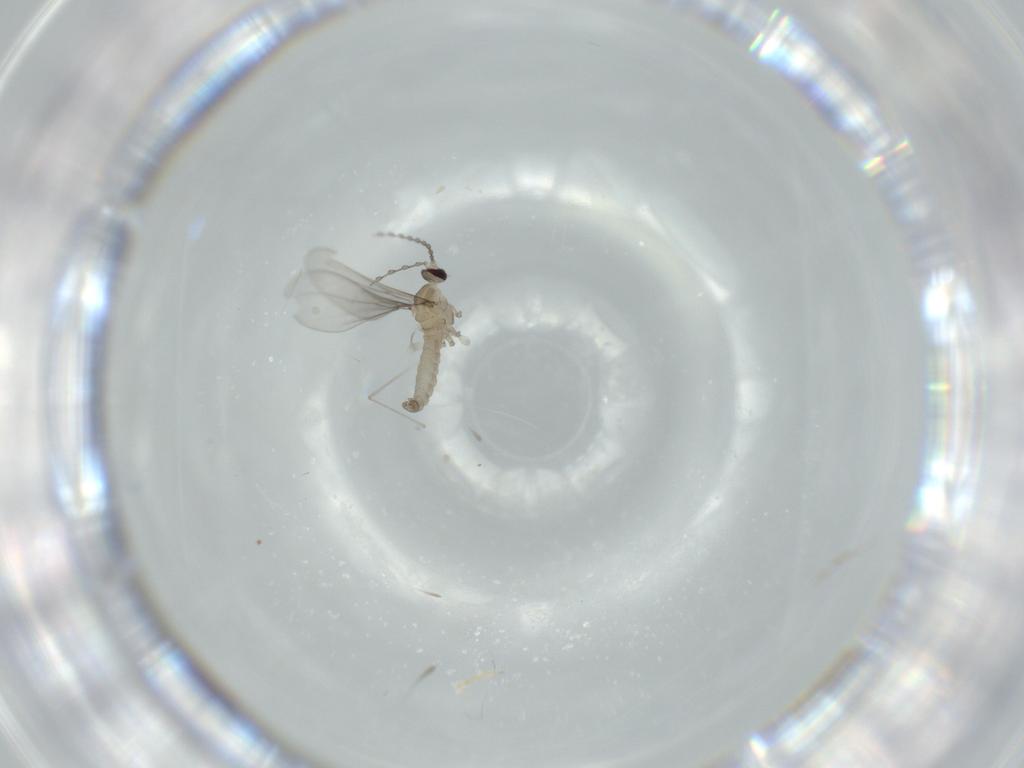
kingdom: Animalia
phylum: Arthropoda
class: Insecta
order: Diptera
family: Cecidomyiidae
